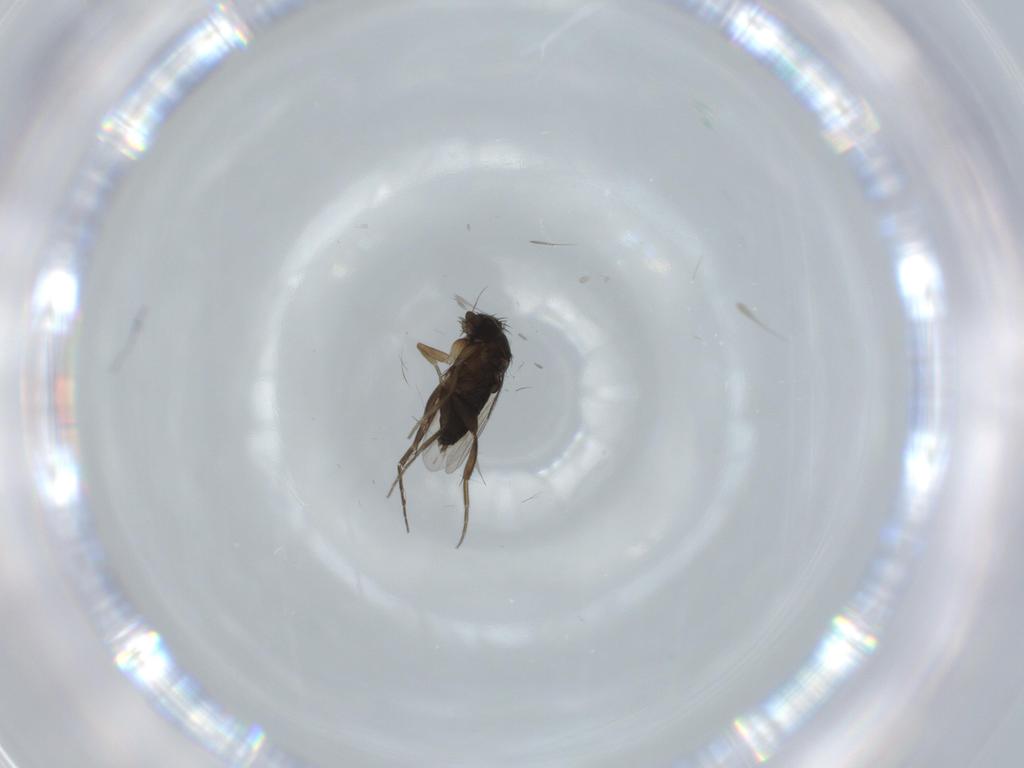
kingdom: Animalia
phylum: Arthropoda
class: Insecta
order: Diptera
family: Phoridae
